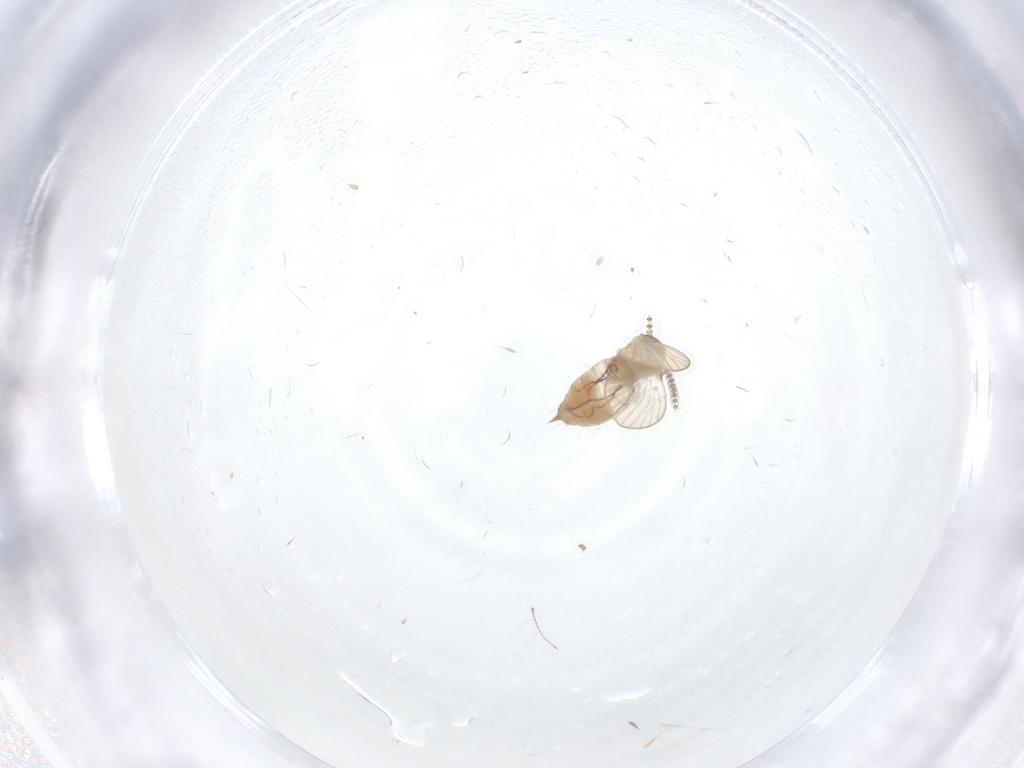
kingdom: Animalia
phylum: Arthropoda
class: Insecta
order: Diptera
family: Chironomidae
